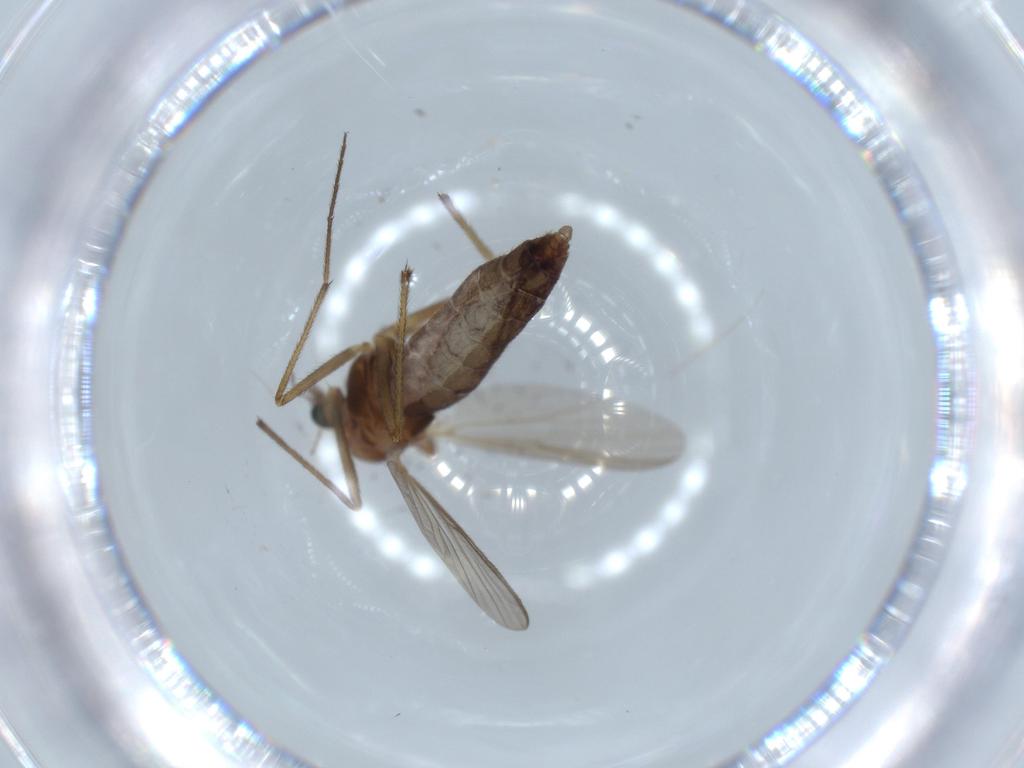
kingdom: Animalia
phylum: Arthropoda
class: Insecta
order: Diptera
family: Chironomidae
